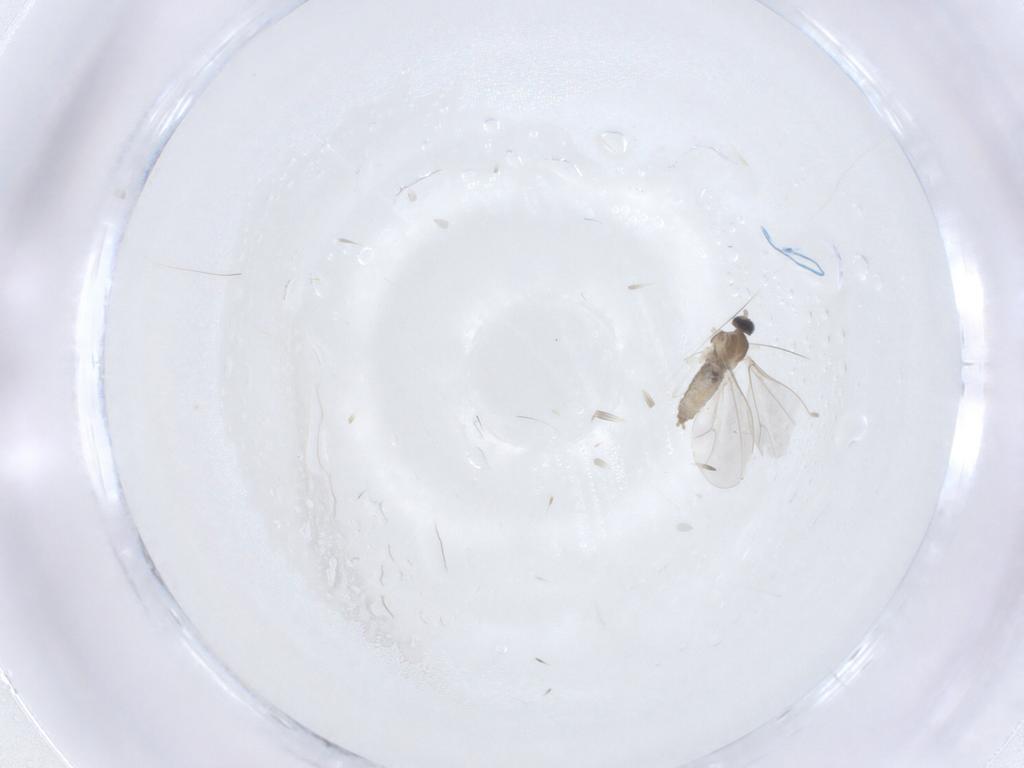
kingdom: Animalia
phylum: Arthropoda
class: Insecta
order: Diptera
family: Cecidomyiidae
